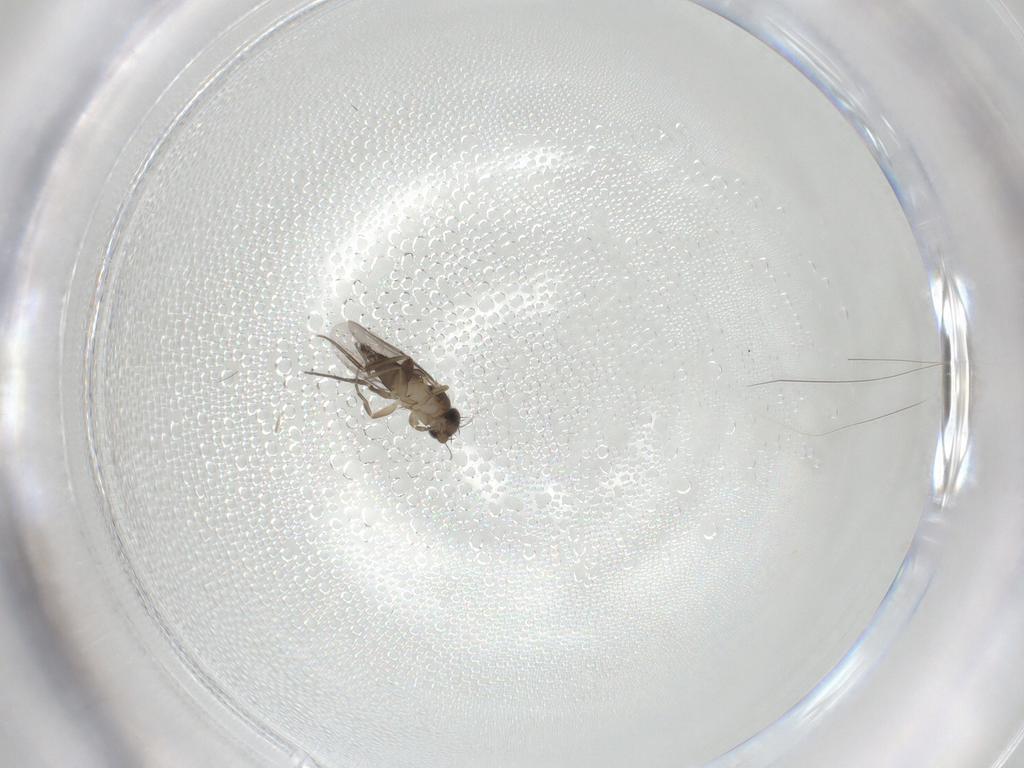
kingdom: Animalia
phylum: Arthropoda
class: Insecta
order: Diptera
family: Phoridae
